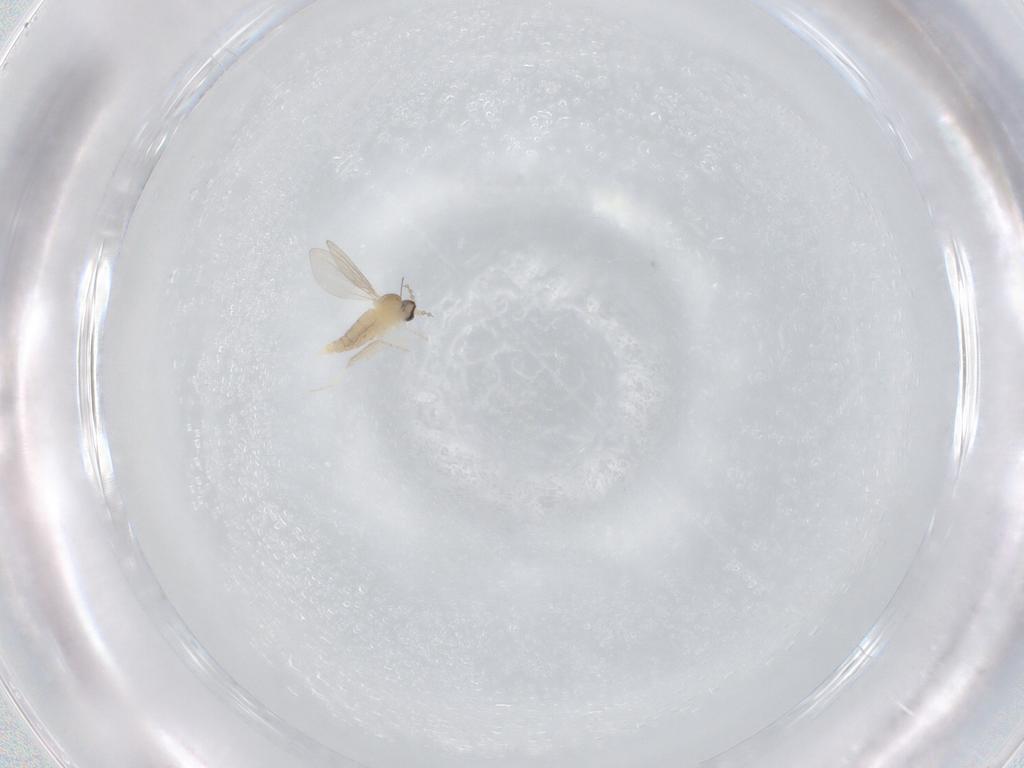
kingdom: Animalia
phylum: Arthropoda
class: Insecta
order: Diptera
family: Cecidomyiidae
